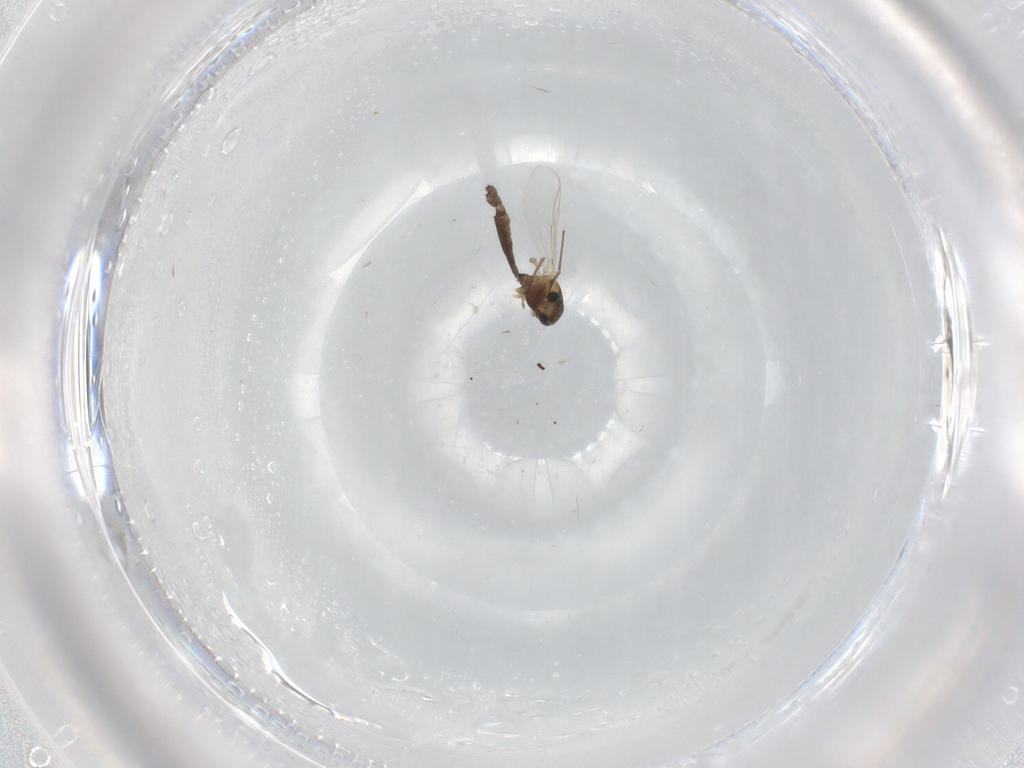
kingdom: Animalia
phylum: Arthropoda
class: Insecta
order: Diptera
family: Chironomidae
